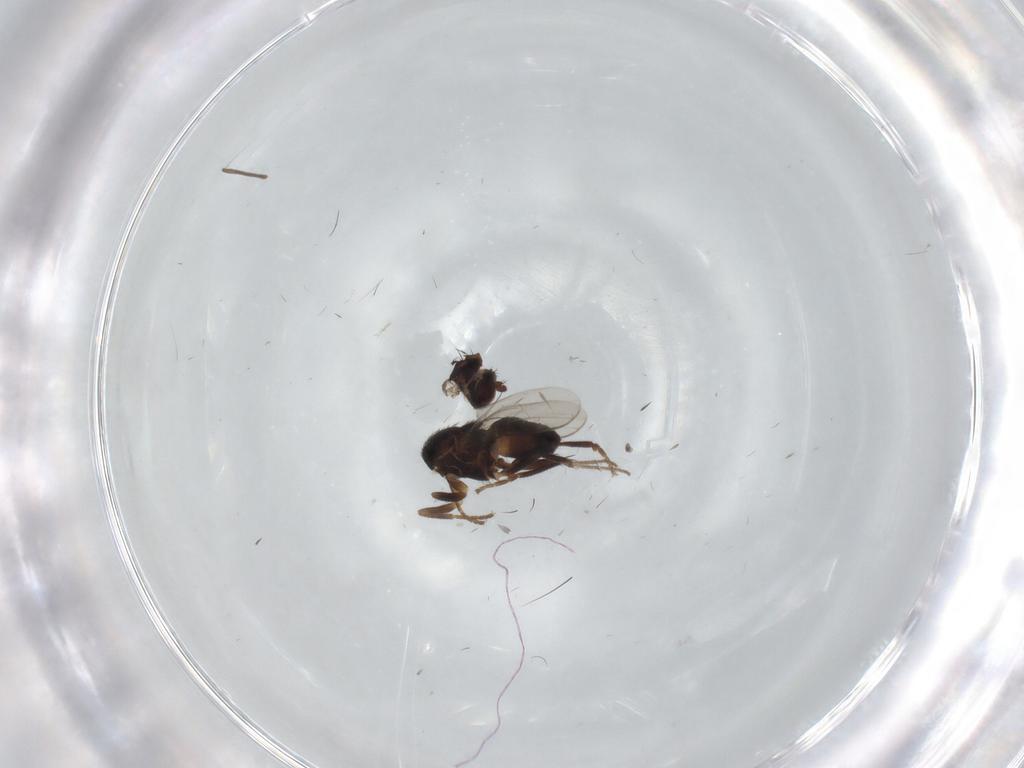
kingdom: Animalia
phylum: Arthropoda
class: Insecta
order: Diptera
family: Sphaeroceridae
